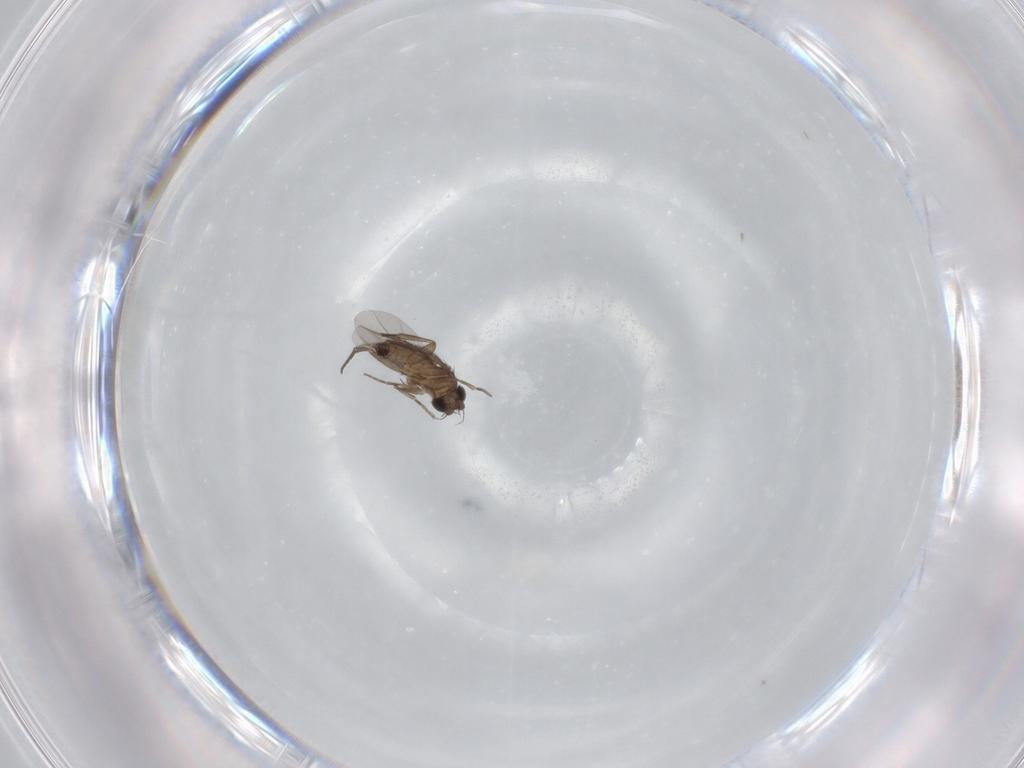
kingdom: Animalia
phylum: Arthropoda
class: Insecta
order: Diptera
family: Phoridae
